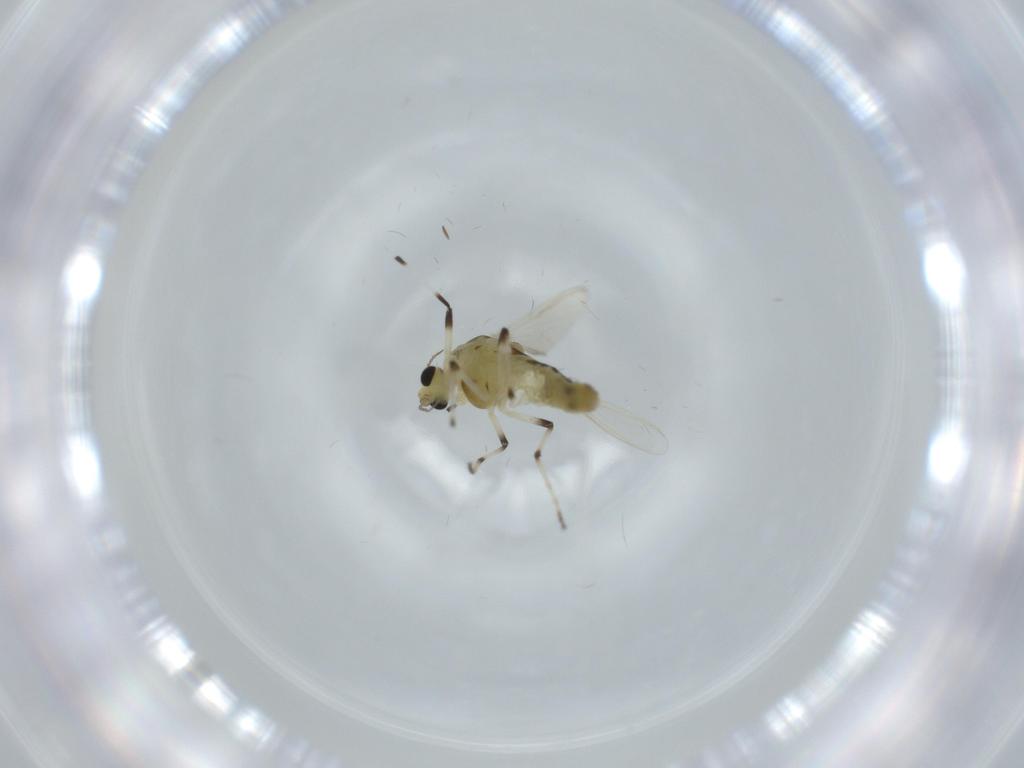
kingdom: Animalia
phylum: Arthropoda
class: Insecta
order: Diptera
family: Chironomidae
